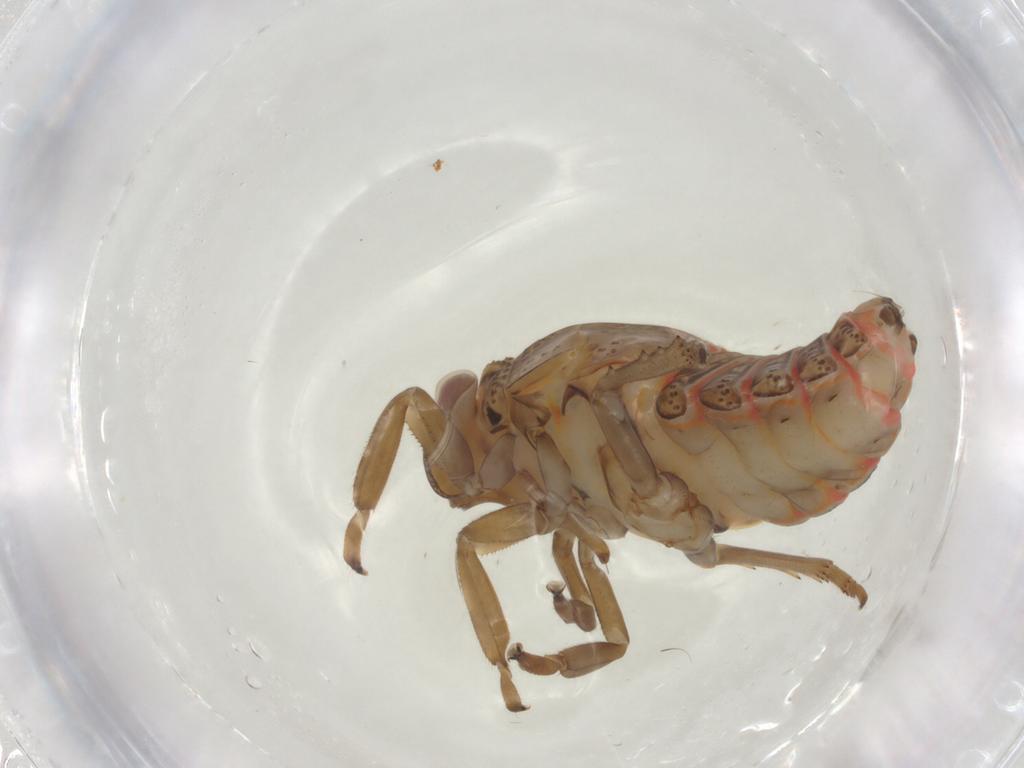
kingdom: Animalia
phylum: Arthropoda
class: Insecta
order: Hemiptera
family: Issidae
